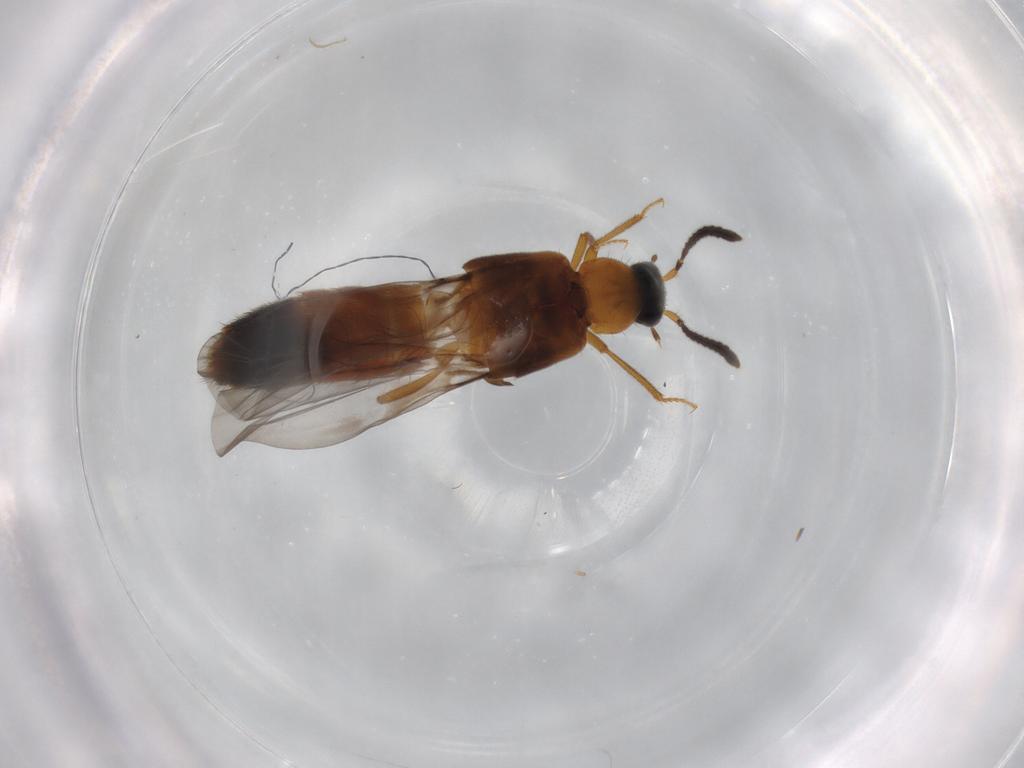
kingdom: Animalia
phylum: Arthropoda
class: Insecta
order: Coleoptera
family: Staphylinidae
